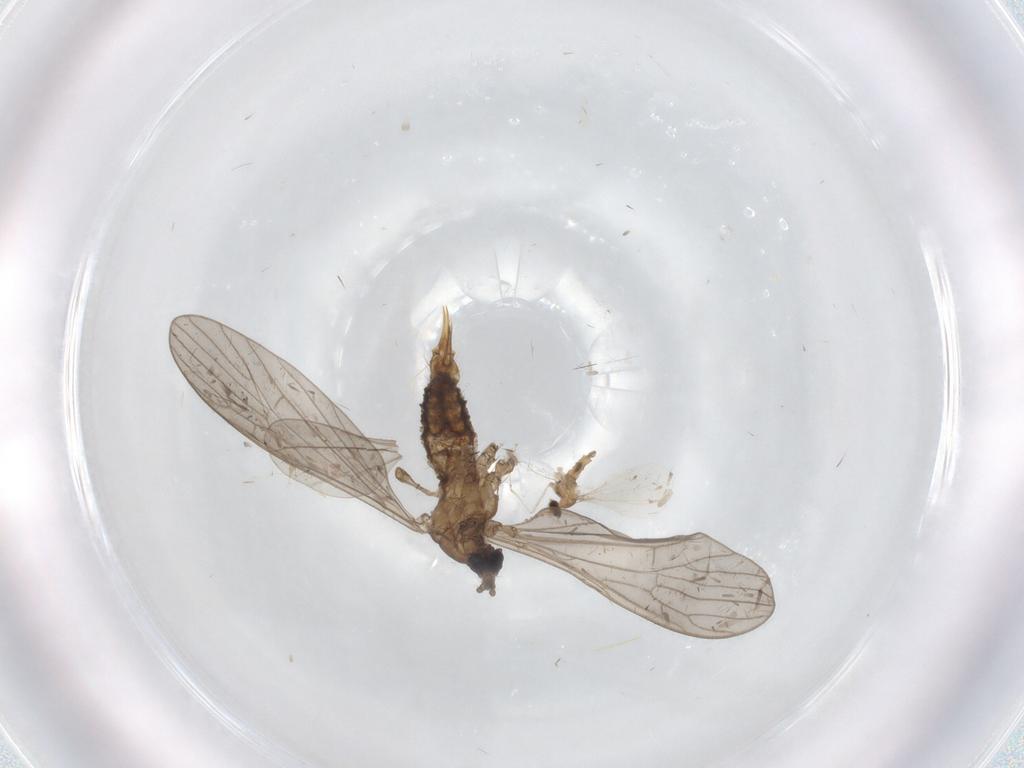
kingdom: Animalia
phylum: Arthropoda
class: Insecta
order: Diptera
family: Limoniidae
